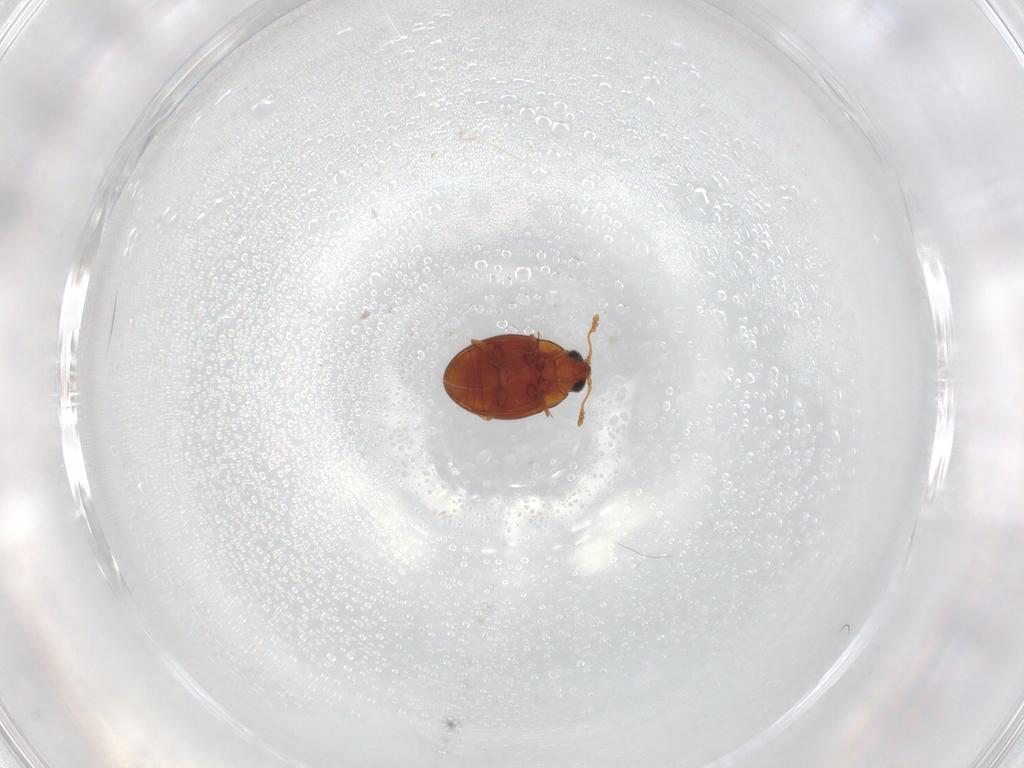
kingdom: Animalia
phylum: Arthropoda
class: Insecta
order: Coleoptera
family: Cryptophagidae
